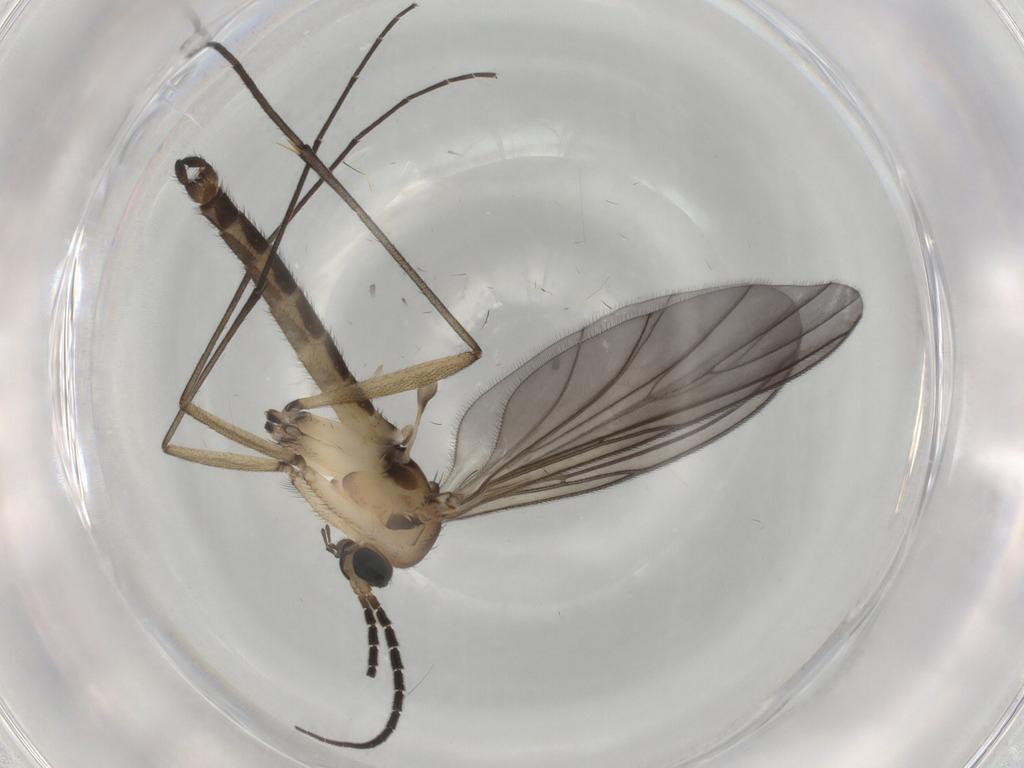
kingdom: Animalia
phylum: Arthropoda
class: Insecta
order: Diptera
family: Sciaridae
